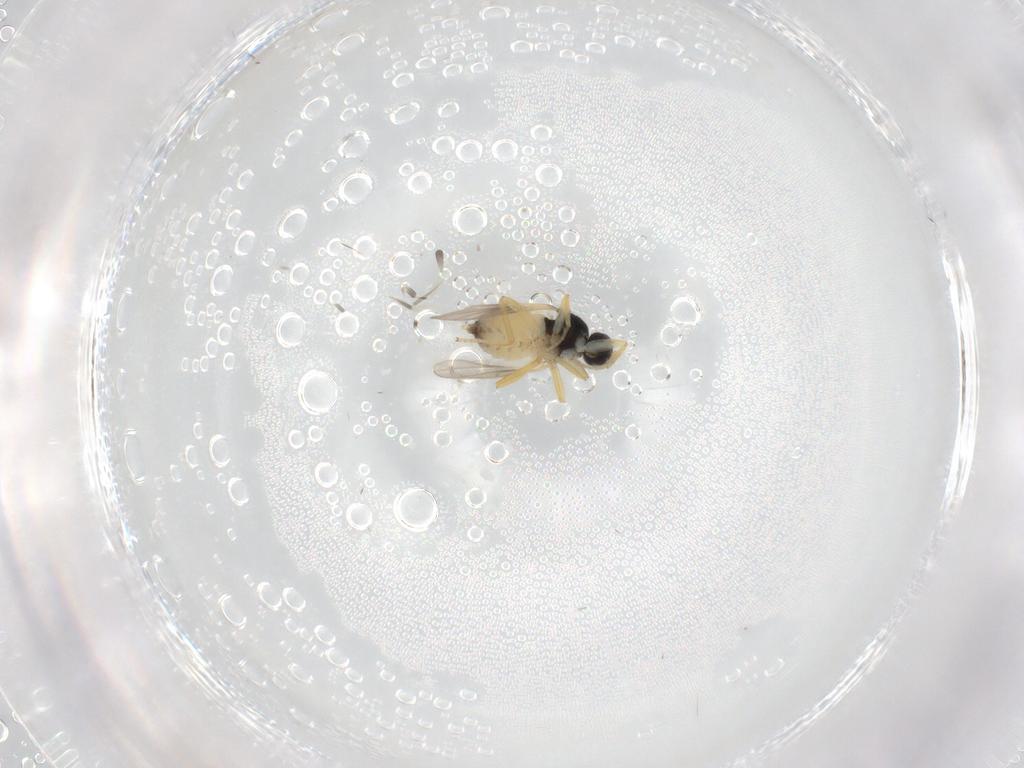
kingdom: Animalia
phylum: Arthropoda
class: Insecta
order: Diptera
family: Hybotidae
